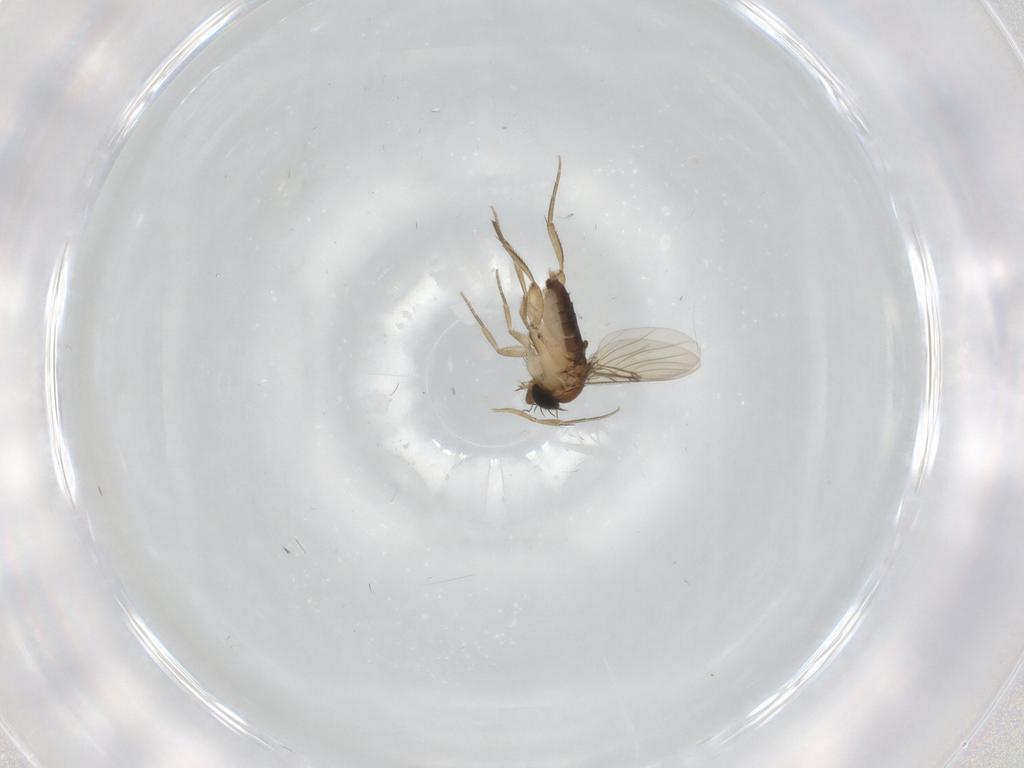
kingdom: Animalia
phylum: Arthropoda
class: Insecta
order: Diptera
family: Phoridae
